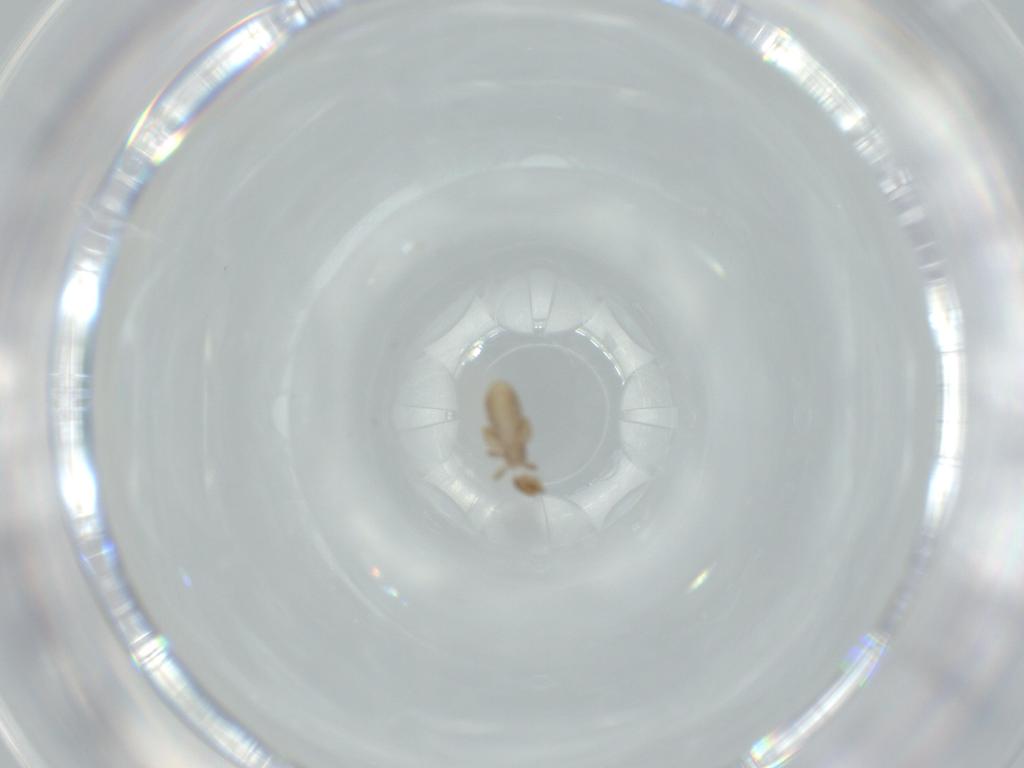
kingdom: Animalia
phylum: Arthropoda
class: Insecta
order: Psocodea
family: Liposcelididae
